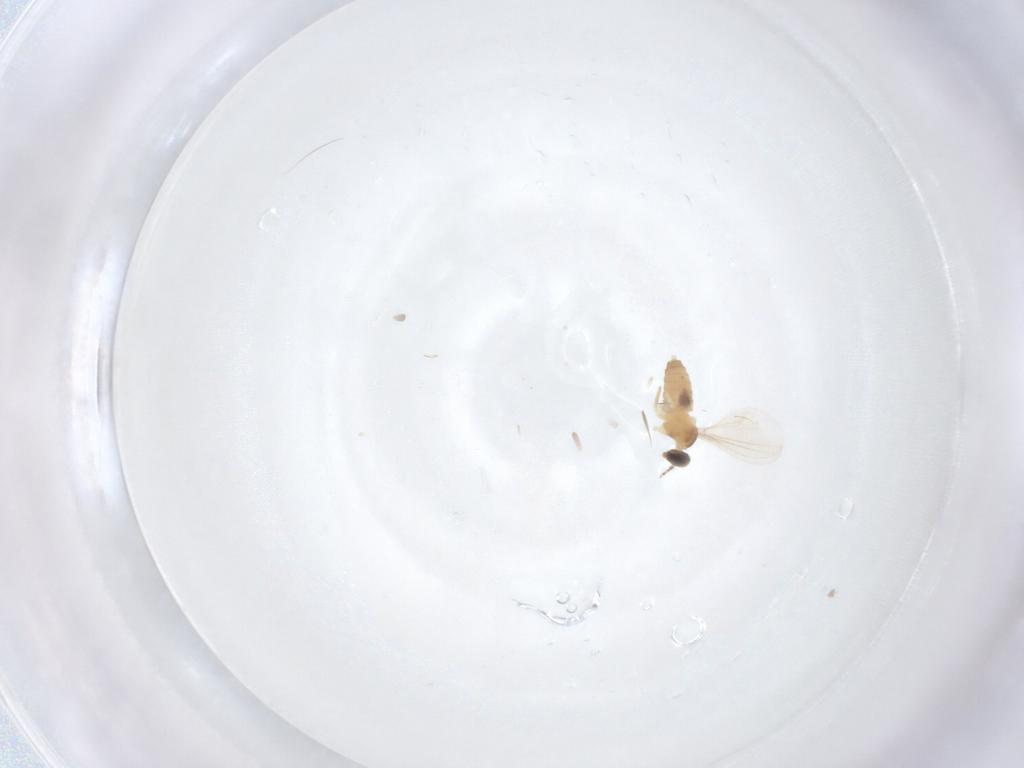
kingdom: Animalia
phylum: Arthropoda
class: Insecta
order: Diptera
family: Cecidomyiidae
